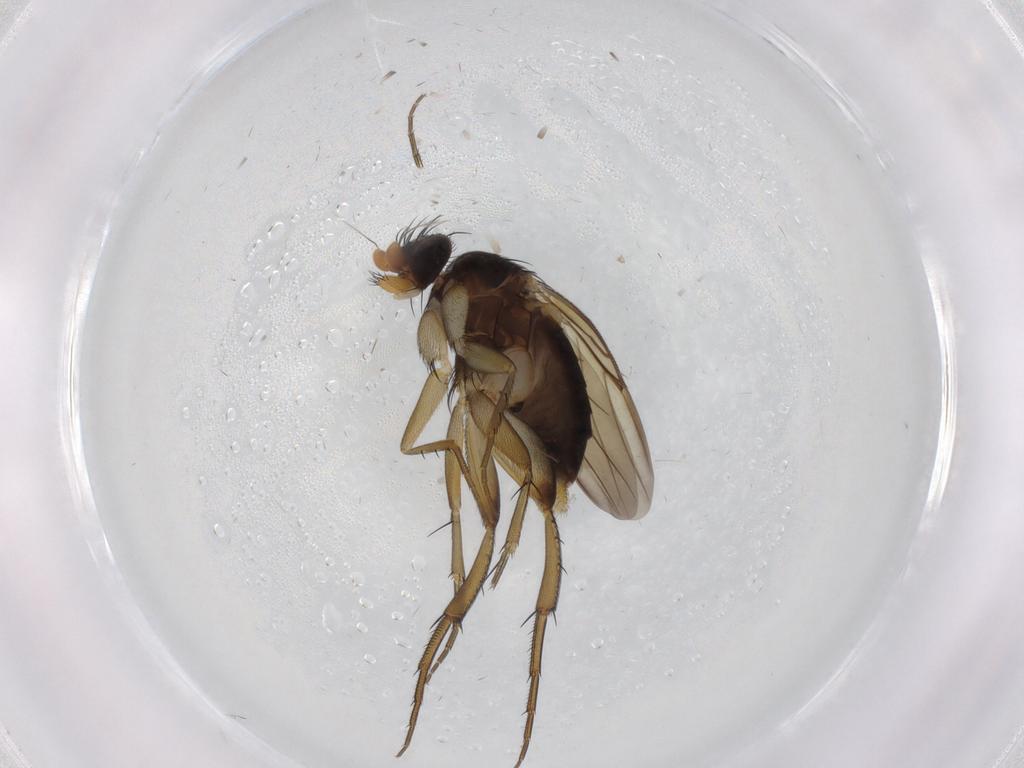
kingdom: Animalia
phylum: Arthropoda
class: Insecta
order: Diptera
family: Phoridae
